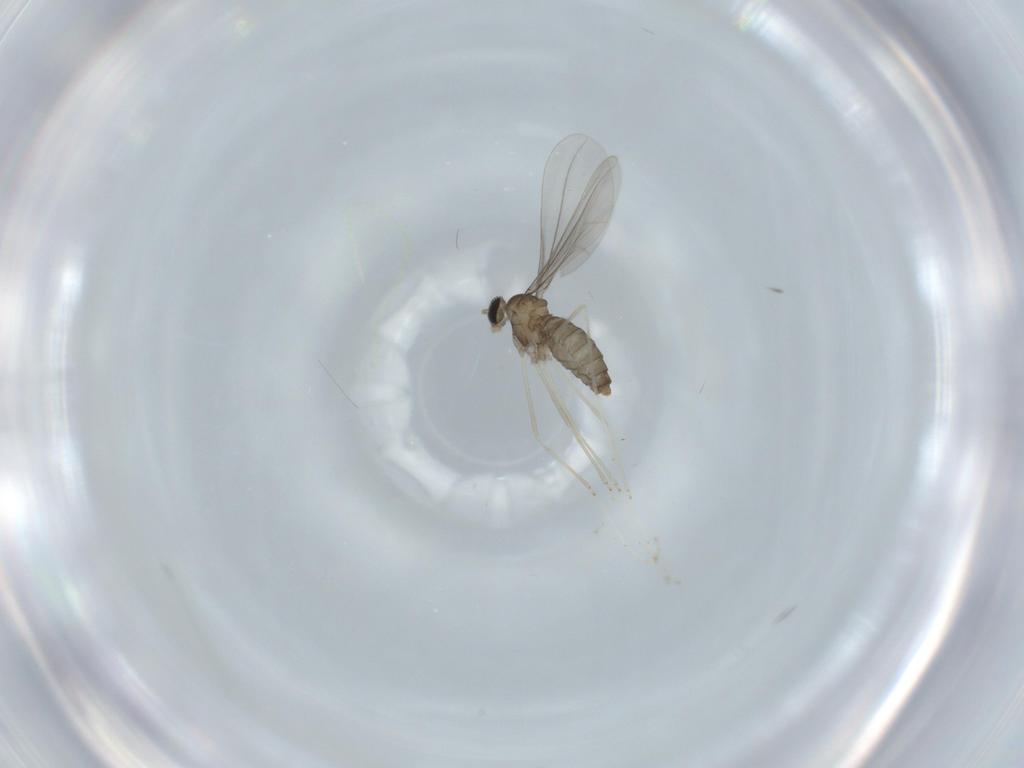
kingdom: Animalia
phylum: Arthropoda
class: Insecta
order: Diptera
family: Cecidomyiidae
